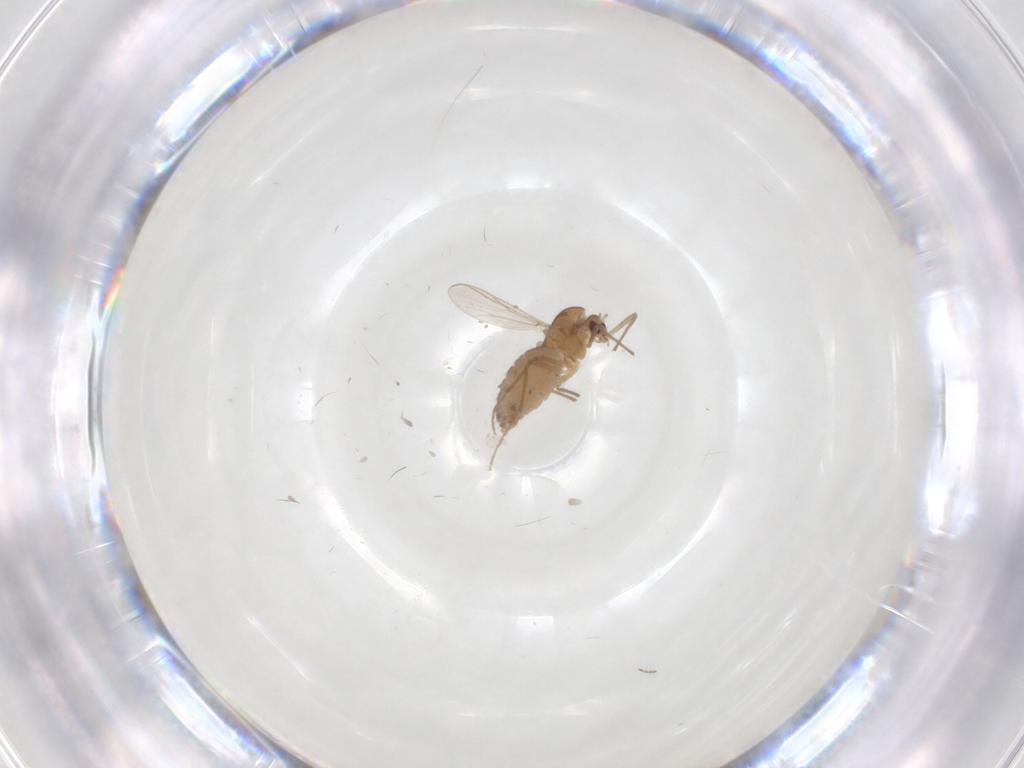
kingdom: Animalia
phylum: Arthropoda
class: Insecta
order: Diptera
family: Chironomidae
